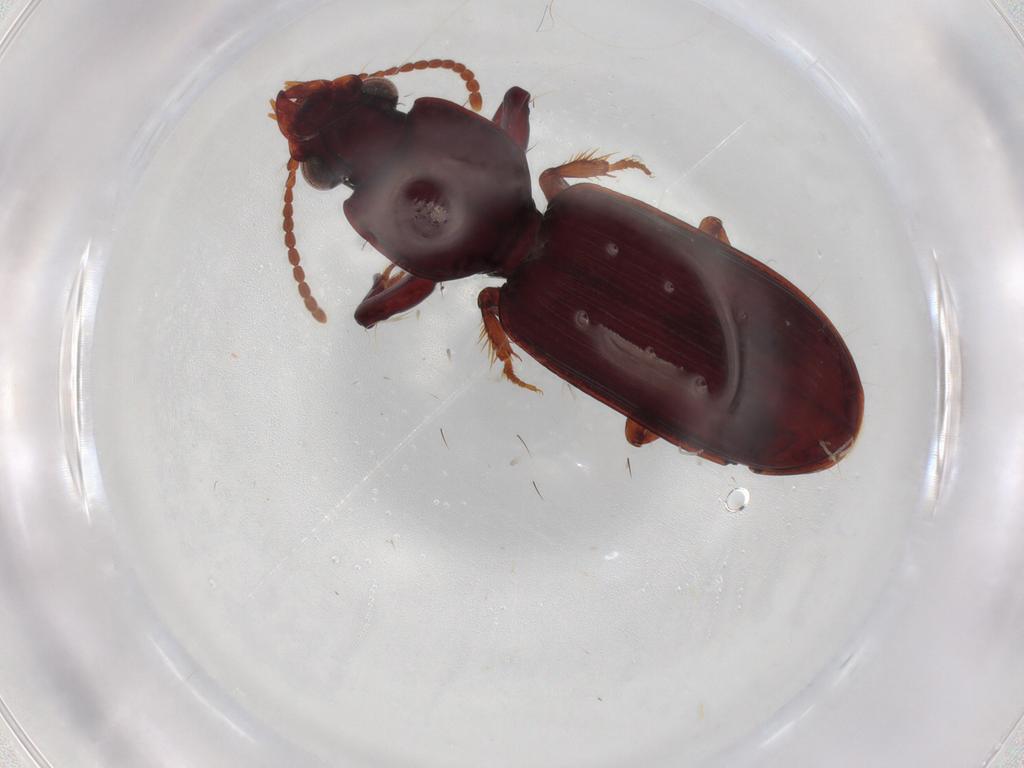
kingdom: Animalia
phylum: Arthropoda
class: Insecta
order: Coleoptera
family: Carabidae
